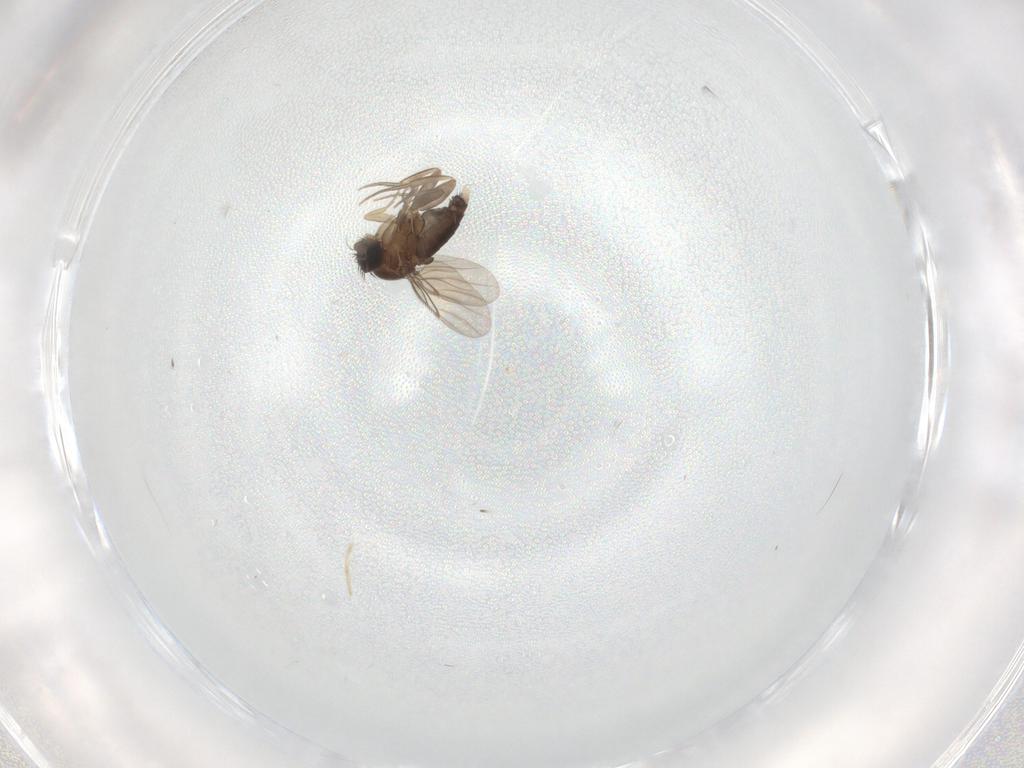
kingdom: Animalia
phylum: Arthropoda
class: Insecta
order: Diptera
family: Phoridae
